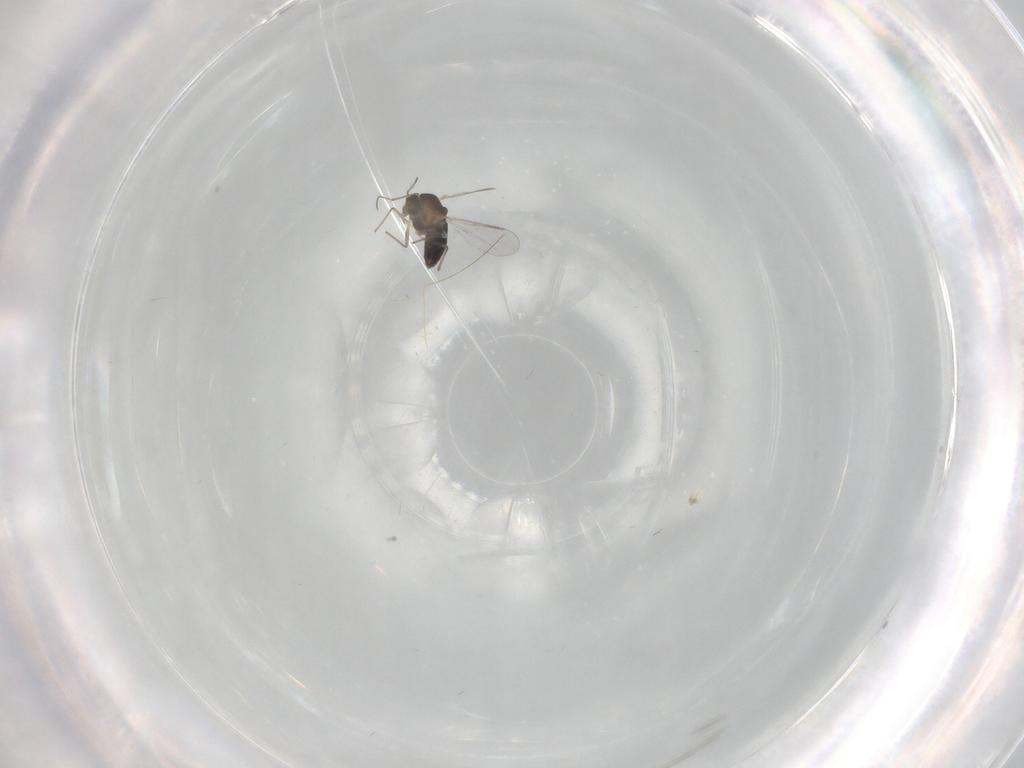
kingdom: Animalia
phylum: Arthropoda
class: Insecta
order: Diptera
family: Chironomidae
